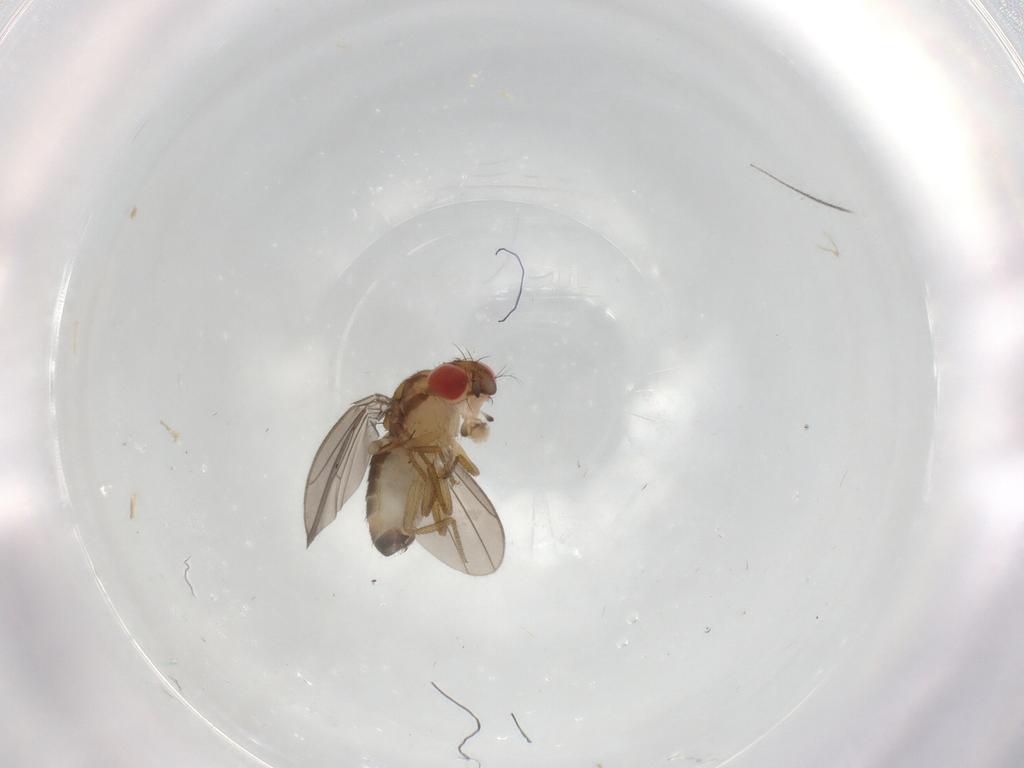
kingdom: Animalia
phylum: Arthropoda
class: Insecta
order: Diptera
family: Drosophilidae
